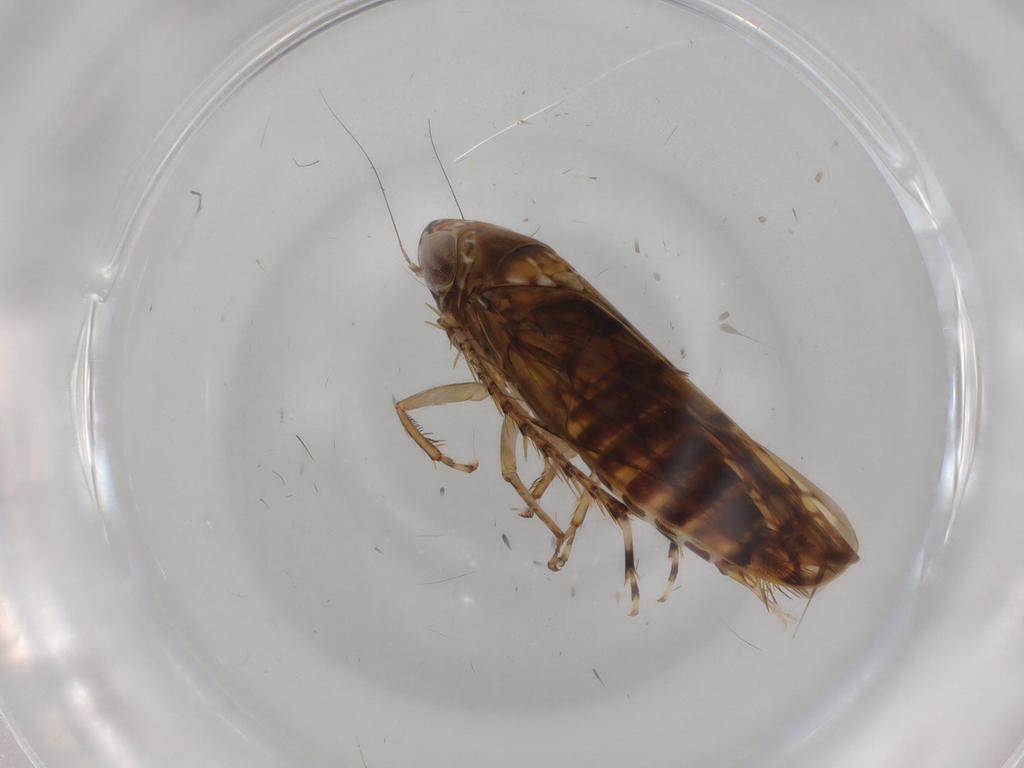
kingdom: Animalia
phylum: Arthropoda
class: Insecta
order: Hemiptera
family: Cicadellidae
